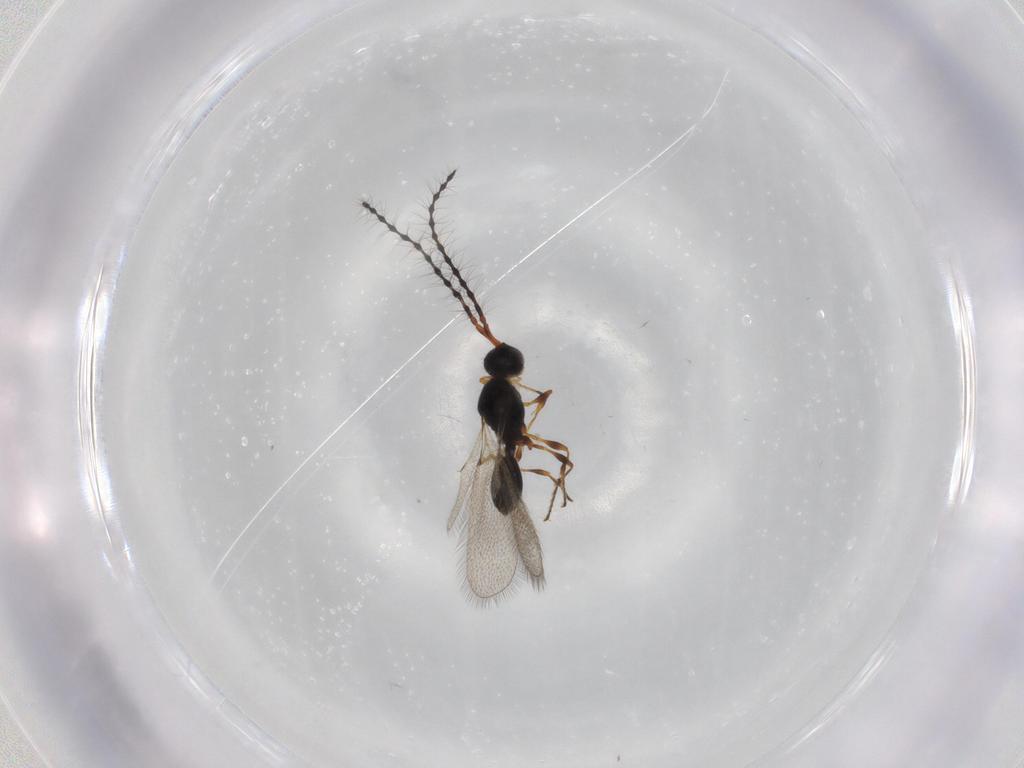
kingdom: Animalia
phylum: Arthropoda
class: Insecta
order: Hymenoptera
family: Diapriidae
